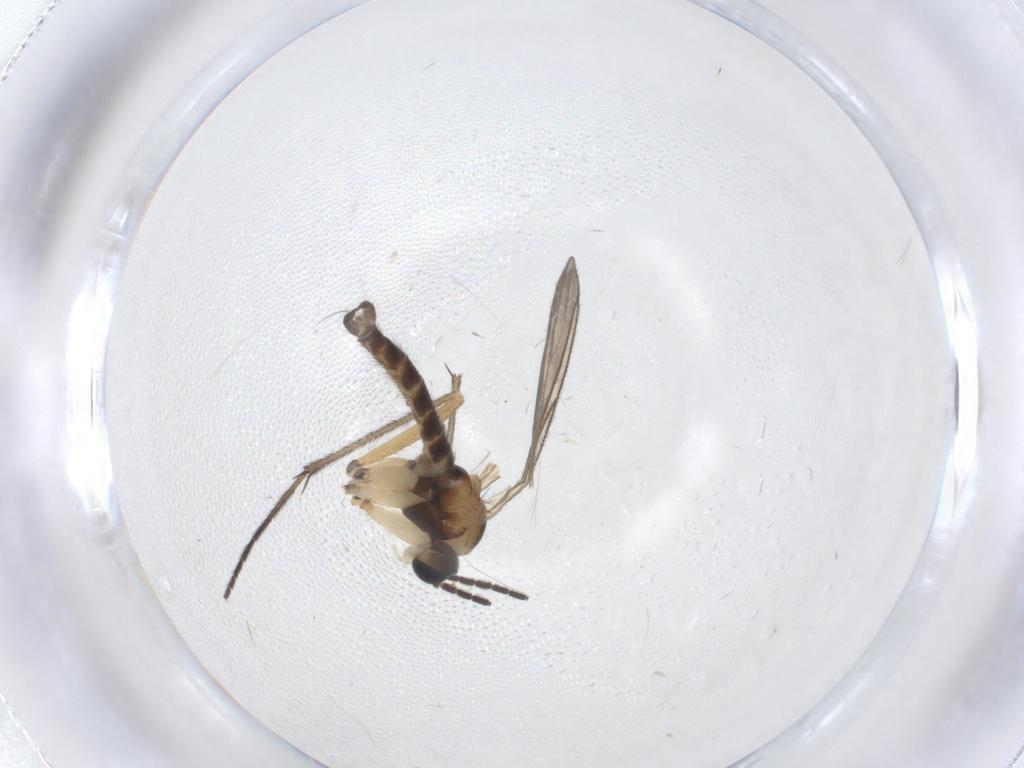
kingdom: Animalia
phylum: Arthropoda
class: Insecta
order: Diptera
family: Sciaridae
